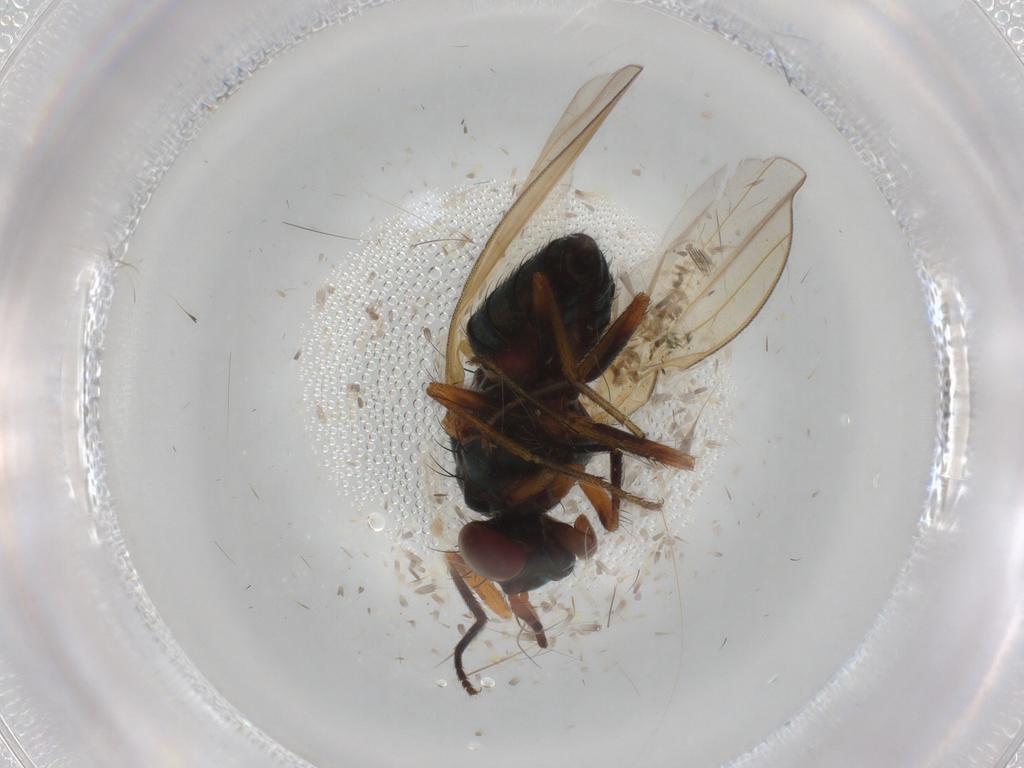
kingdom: Animalia
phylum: Arthropoda
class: Insecta
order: Diptera
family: Lauxaniidae
